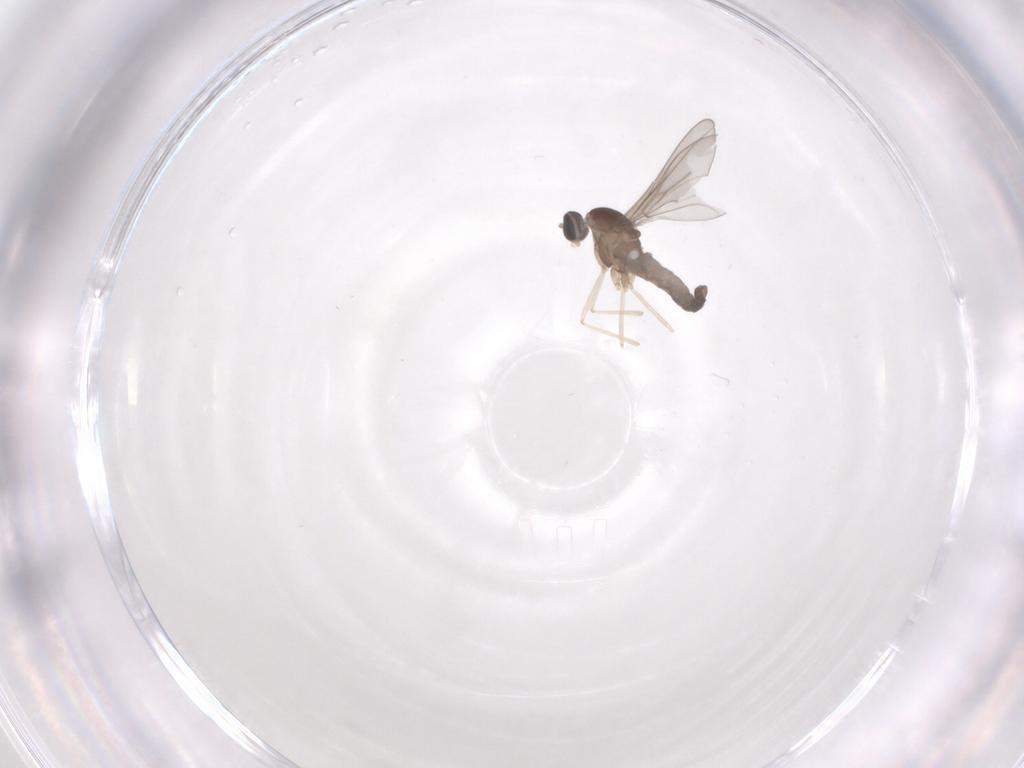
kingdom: Animalia
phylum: Arthropoda
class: Insecta
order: Diptera
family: Cecidomyiidae
